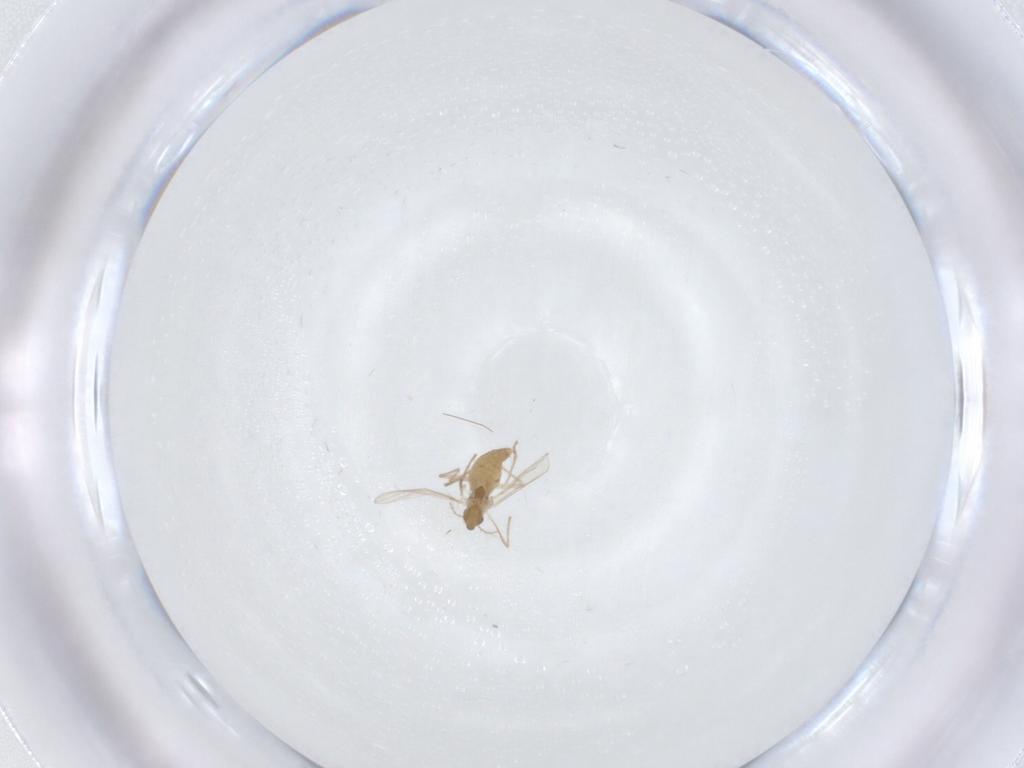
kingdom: Animalia
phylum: Arthropoda
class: Insecta
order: Diptera
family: Chironomidae
